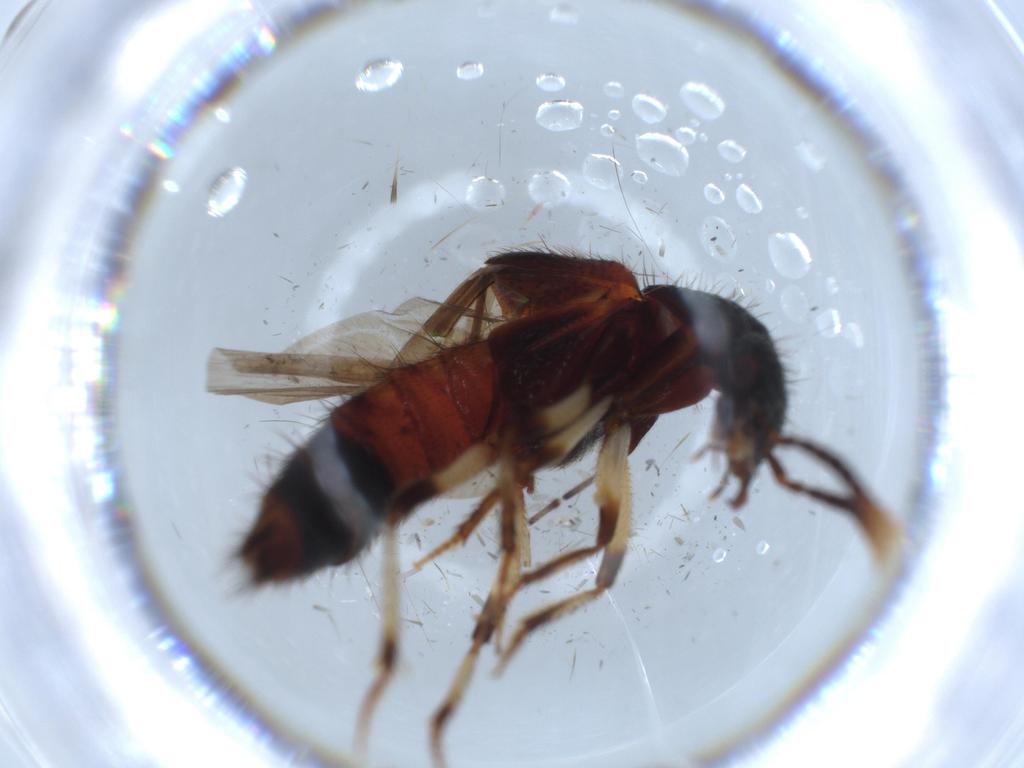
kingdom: Animalia
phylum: Arthropoda
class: Insecta
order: Coleoptera
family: Staphylinidae
